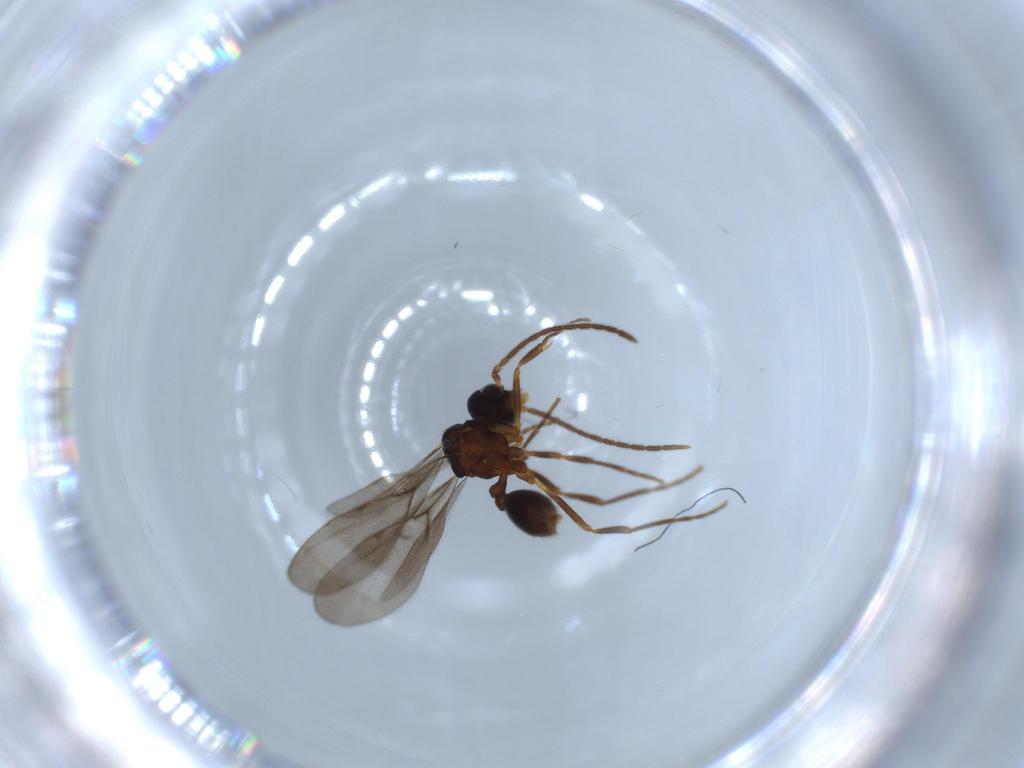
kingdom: Animalia
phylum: Arthropoda
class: Insecta
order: Hymenoptera
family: Formicidae
